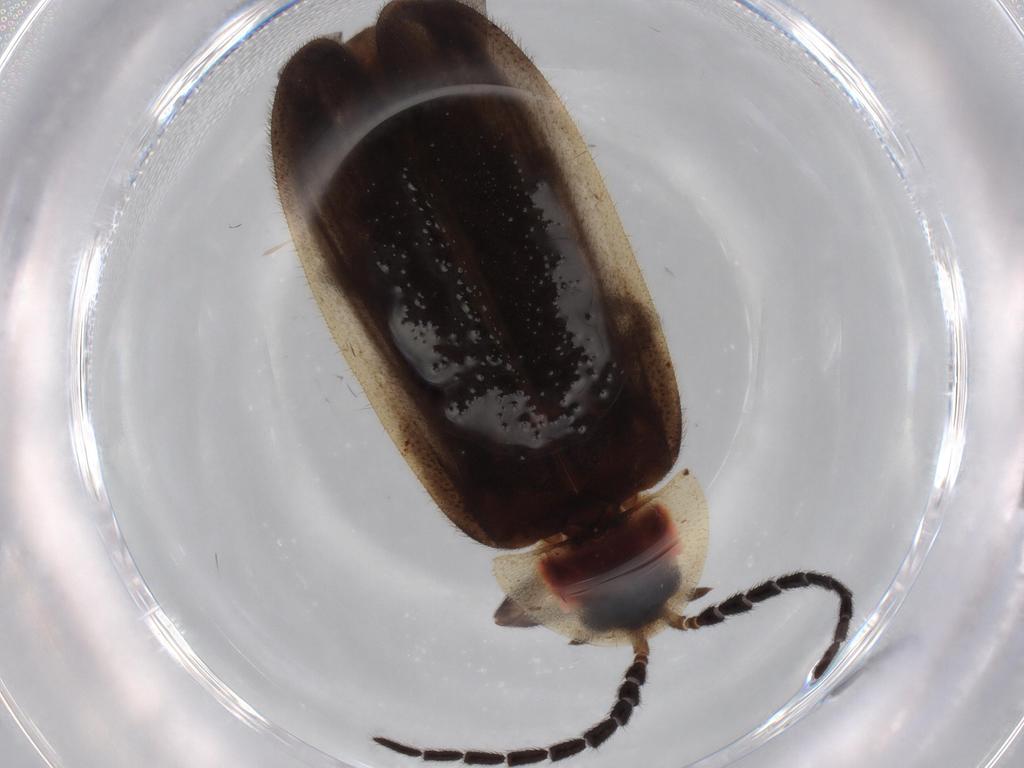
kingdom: Animalia
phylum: Arthropoda
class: Insecta
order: Coleoptera
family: Lampyridae
